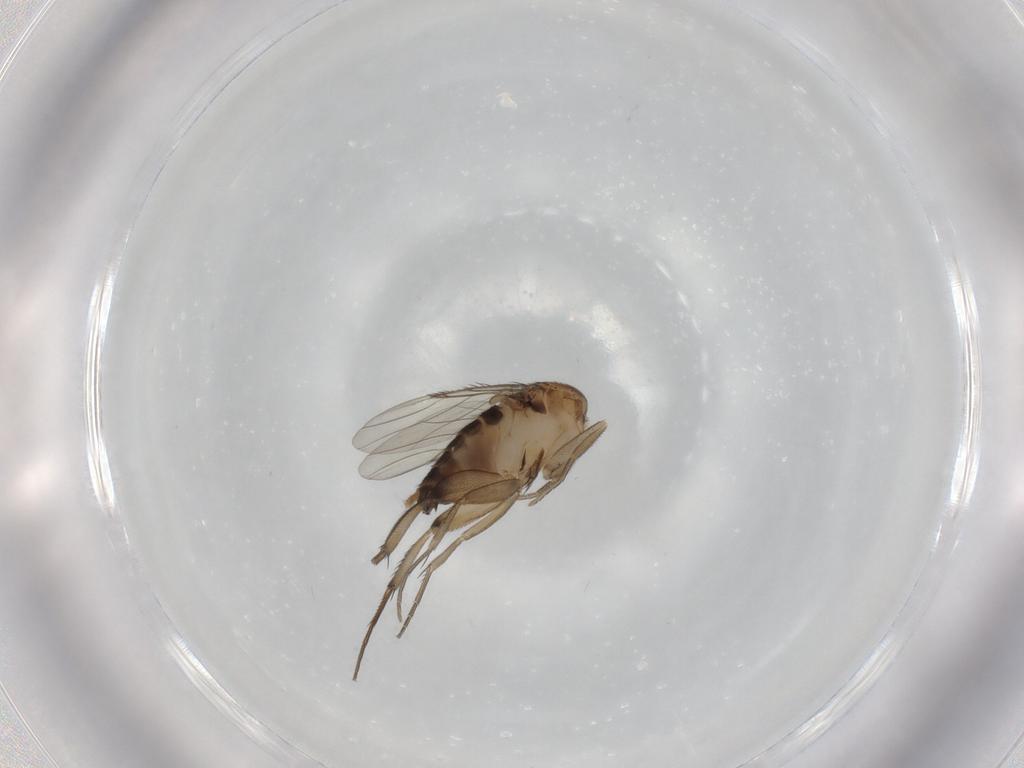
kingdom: Animalia
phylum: Arthropoda
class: Insecta
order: Diptera
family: Phoridae
